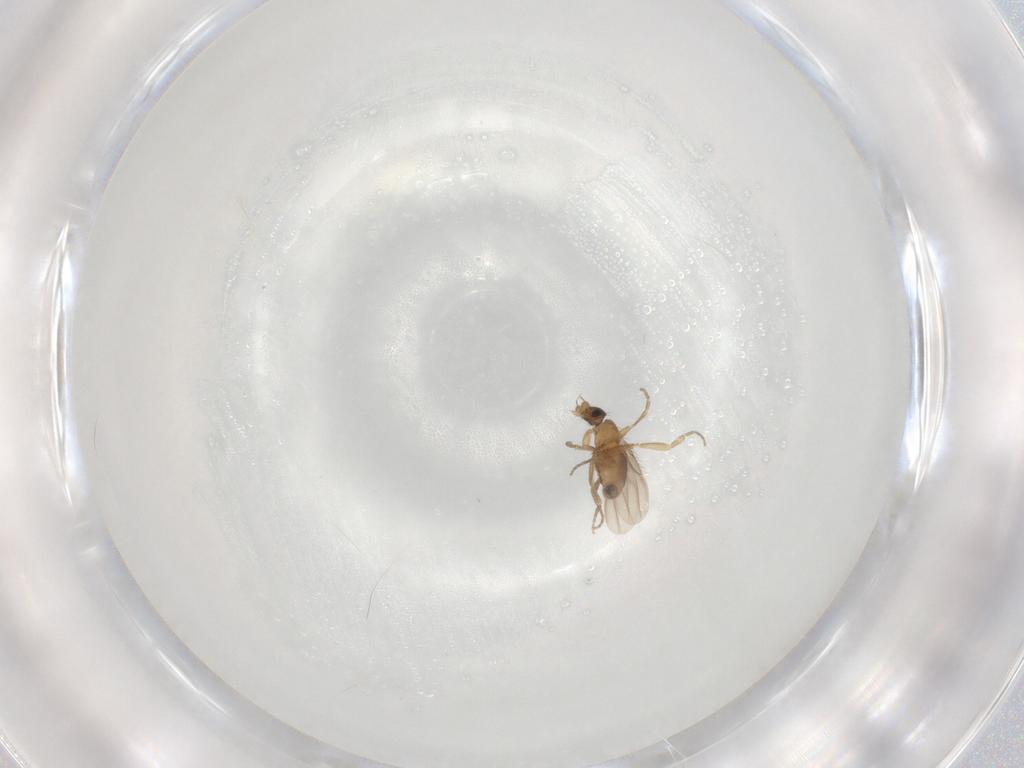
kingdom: Animalia
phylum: Arthropoda
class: Insecta
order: Diptera
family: Phoridae
